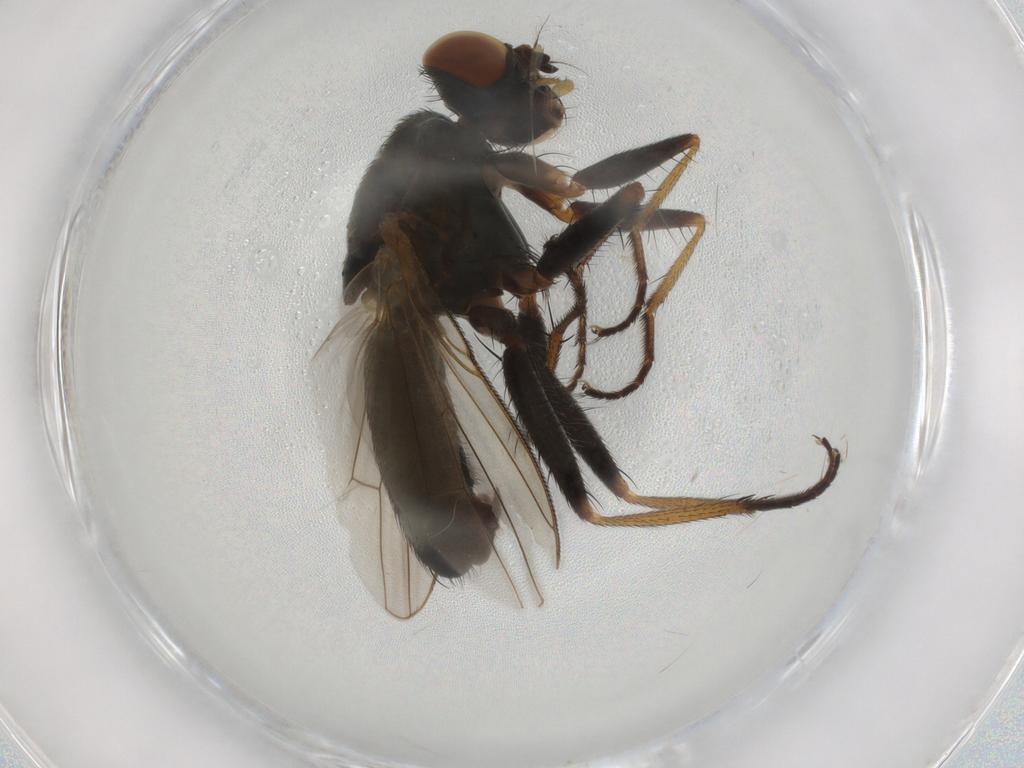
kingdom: Animalia
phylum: Arthropoda
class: Insecta
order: Diptera
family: Muscidae
